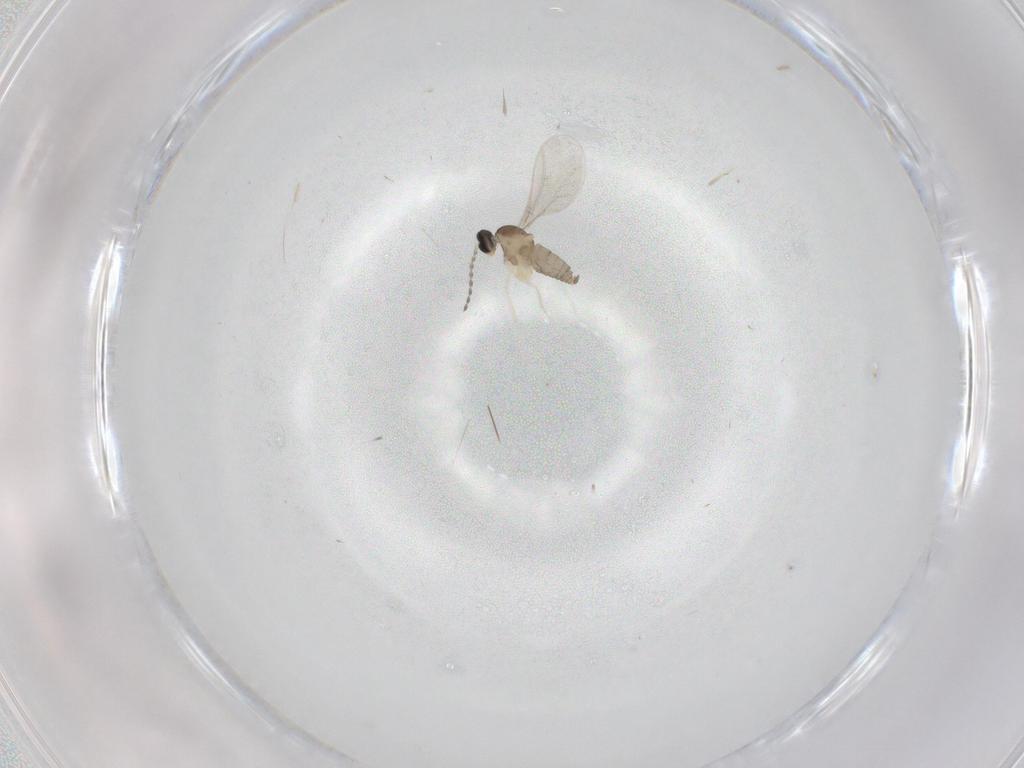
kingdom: Animalia
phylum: Arthropoda
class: Insecta
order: Diptera
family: Cecidomyiidae
